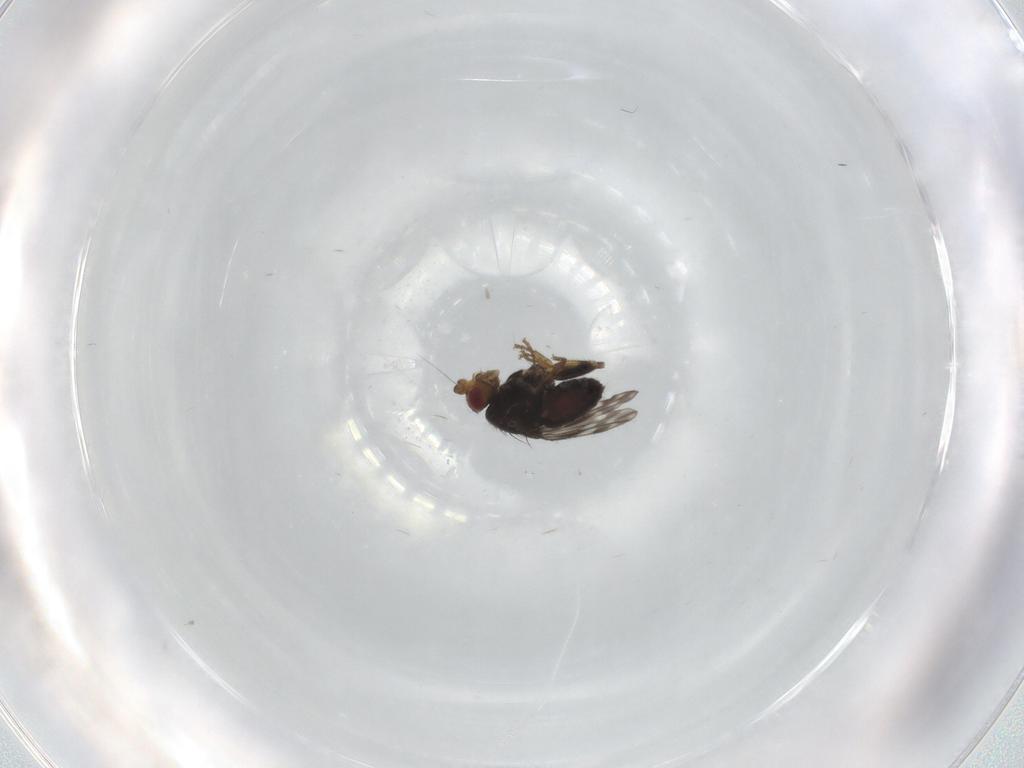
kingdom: Animalia
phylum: Arthropoda
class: Insecta
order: Diptera
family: Sphaeroceridae
